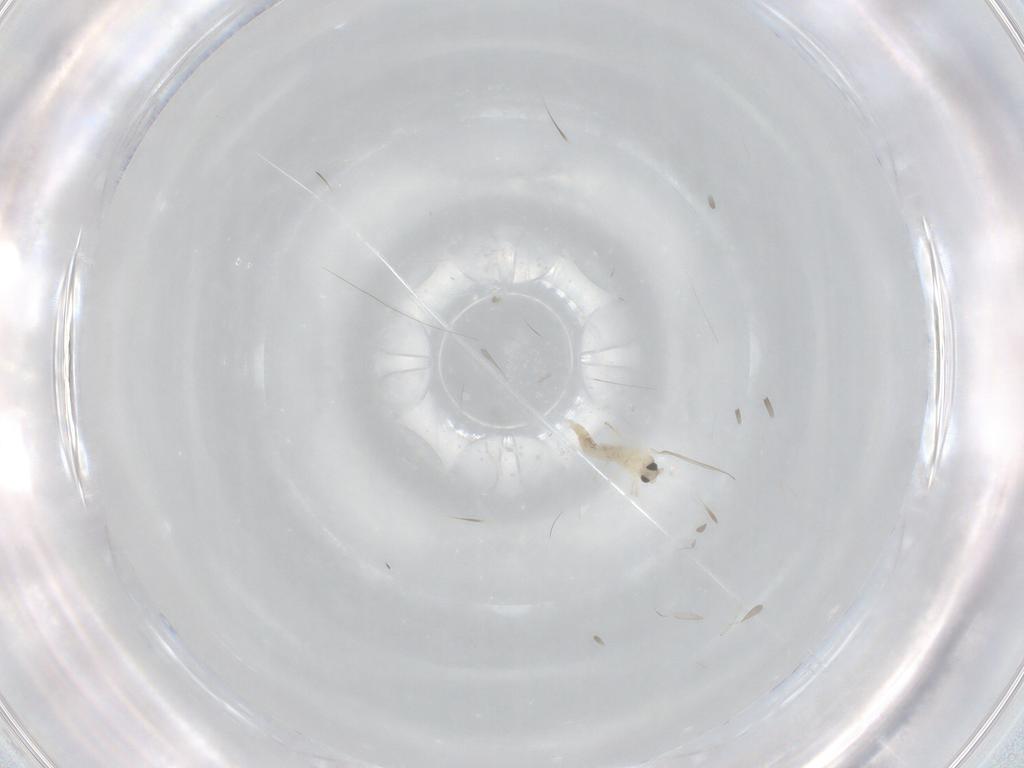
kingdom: Animalia
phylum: Arthropoda
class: Insecta
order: Diptera
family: Cecidomyiidae
